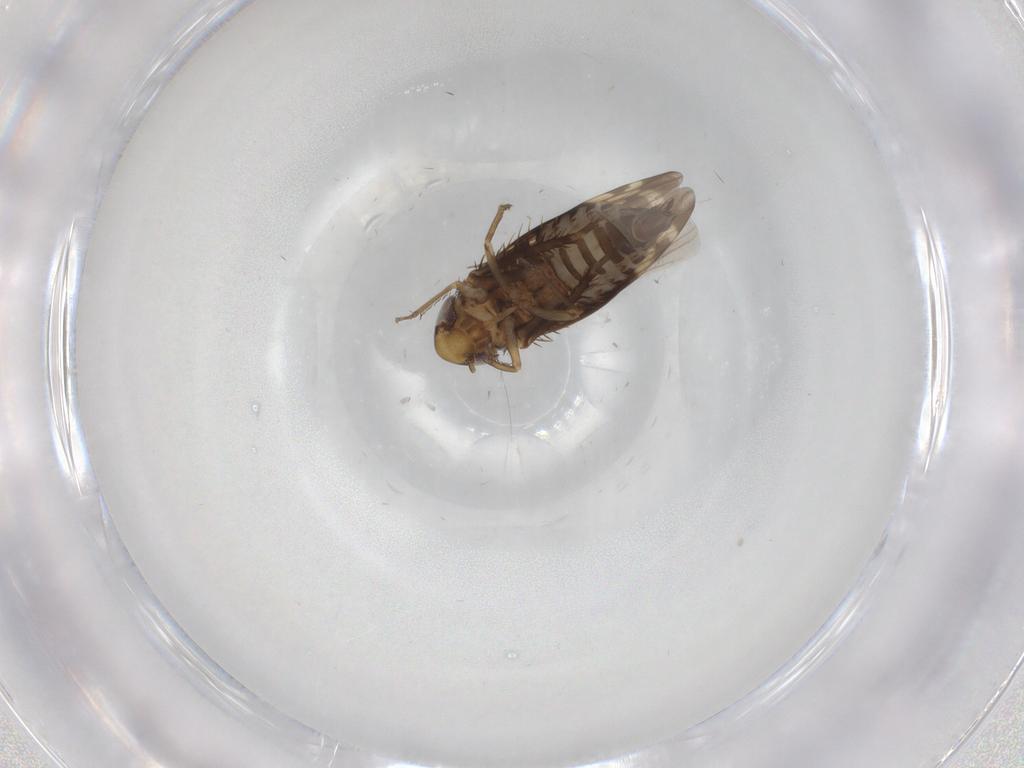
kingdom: Animalia
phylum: Arthropoda
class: Insecta
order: Hemiptera
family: Cicadellidae
